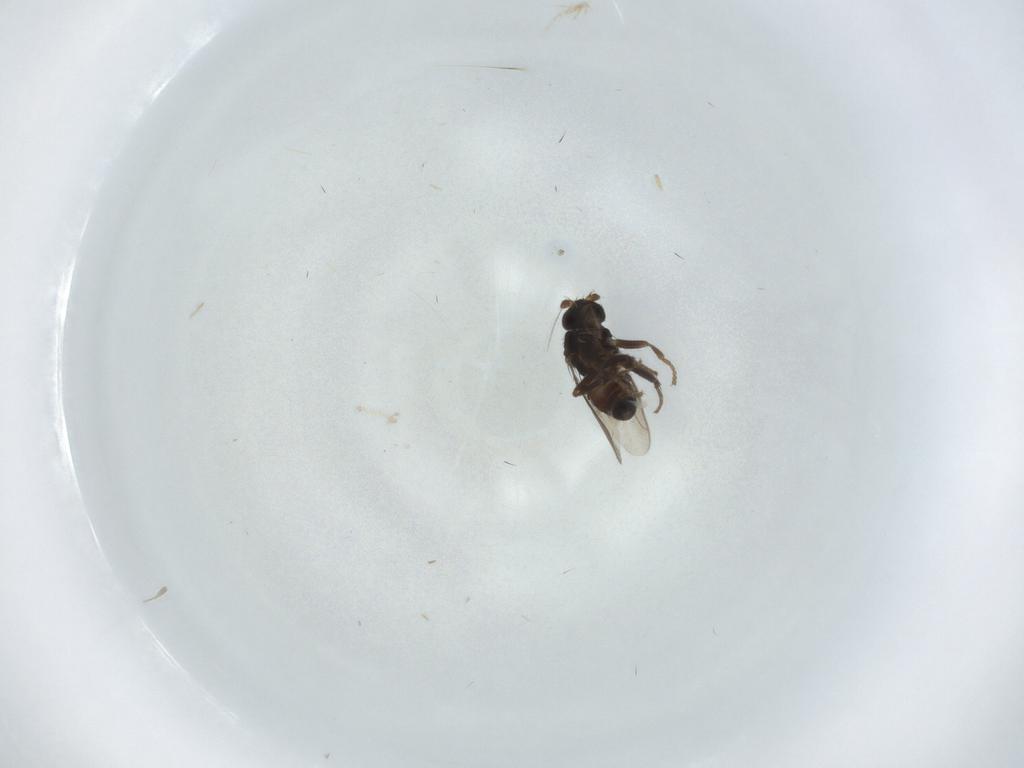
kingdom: Animalia
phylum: Arthropoda
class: Insecta
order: Diptera
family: Sphaeroceridae
